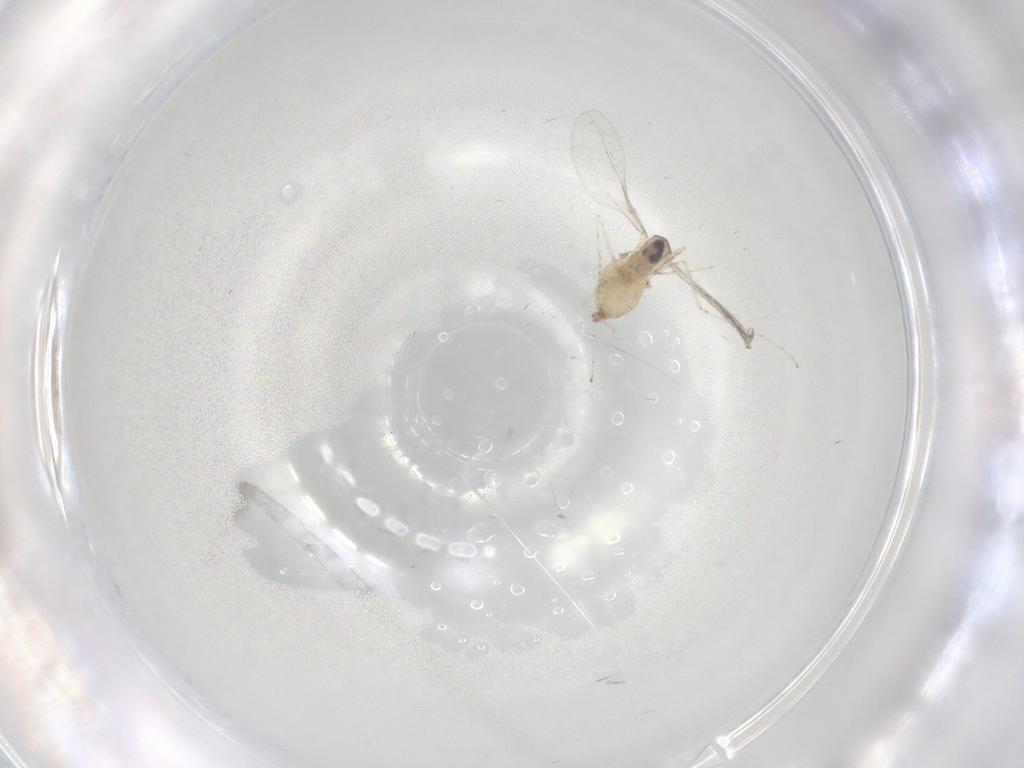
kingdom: Animalia
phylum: Arthropoda
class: Insecta
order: Diptera
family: Cecidomyiidae
